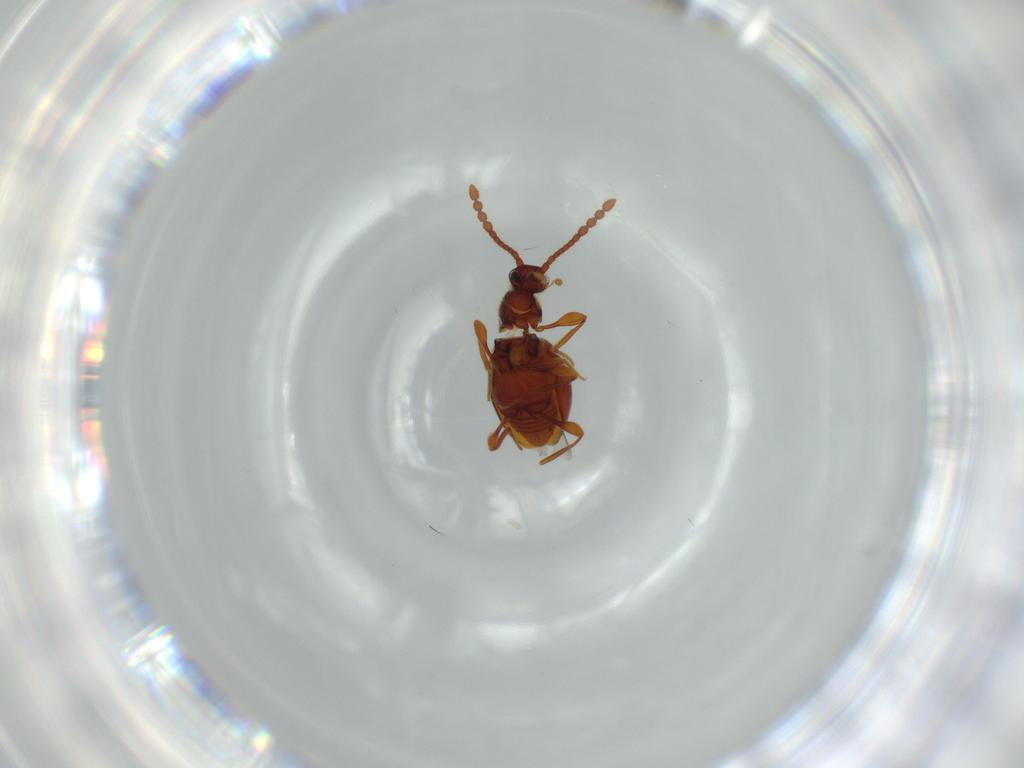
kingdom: Animalia
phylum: Arthropoda
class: Insecta
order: Coleoptera
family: Staphylinidae
